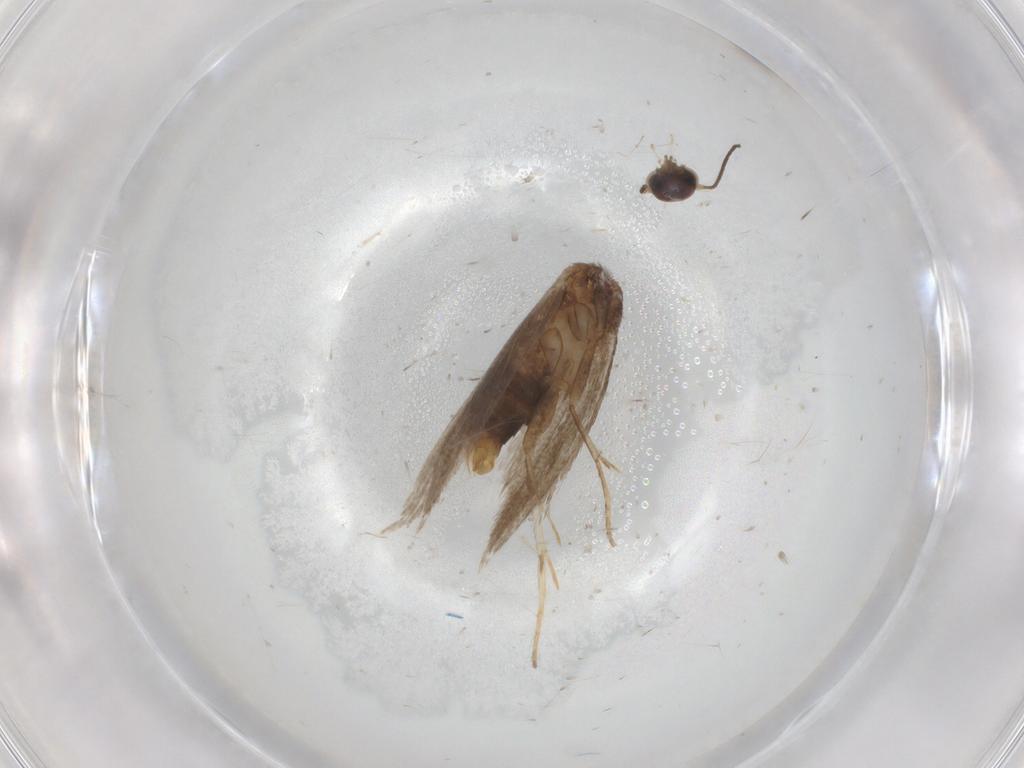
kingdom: Animalia
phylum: Arthropoda
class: Insecta
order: Lepidoptera
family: Nepticulidae
